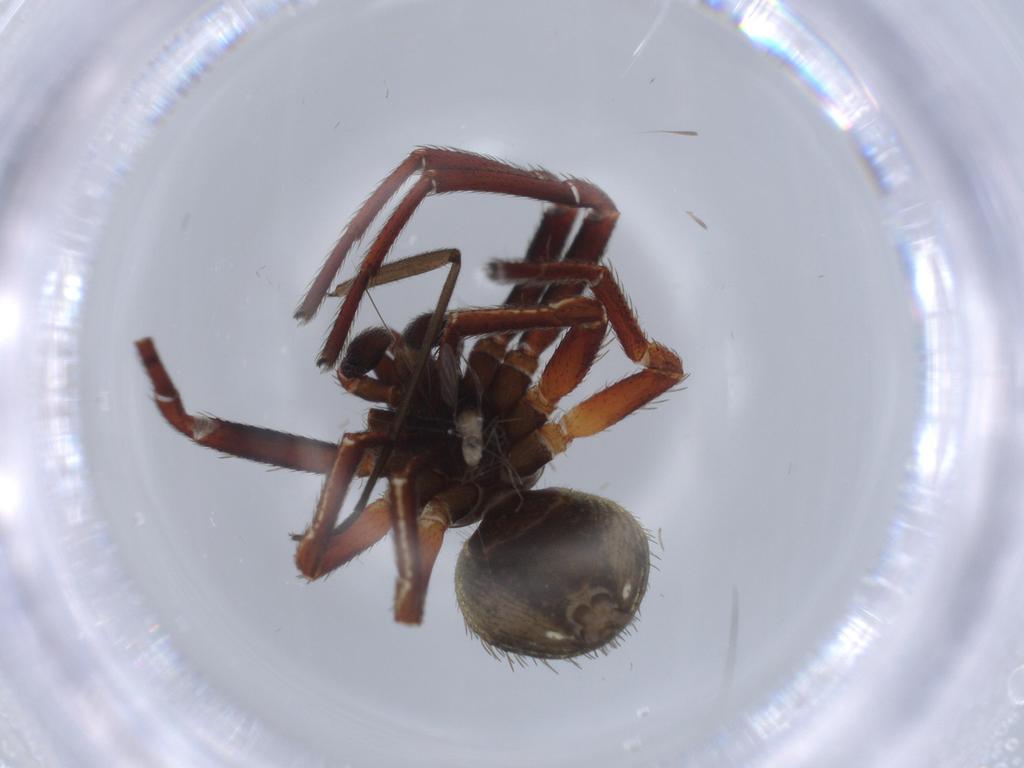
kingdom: Animalia
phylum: Arthropoda
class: Arachnida
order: Araneae
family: Thomisidae
